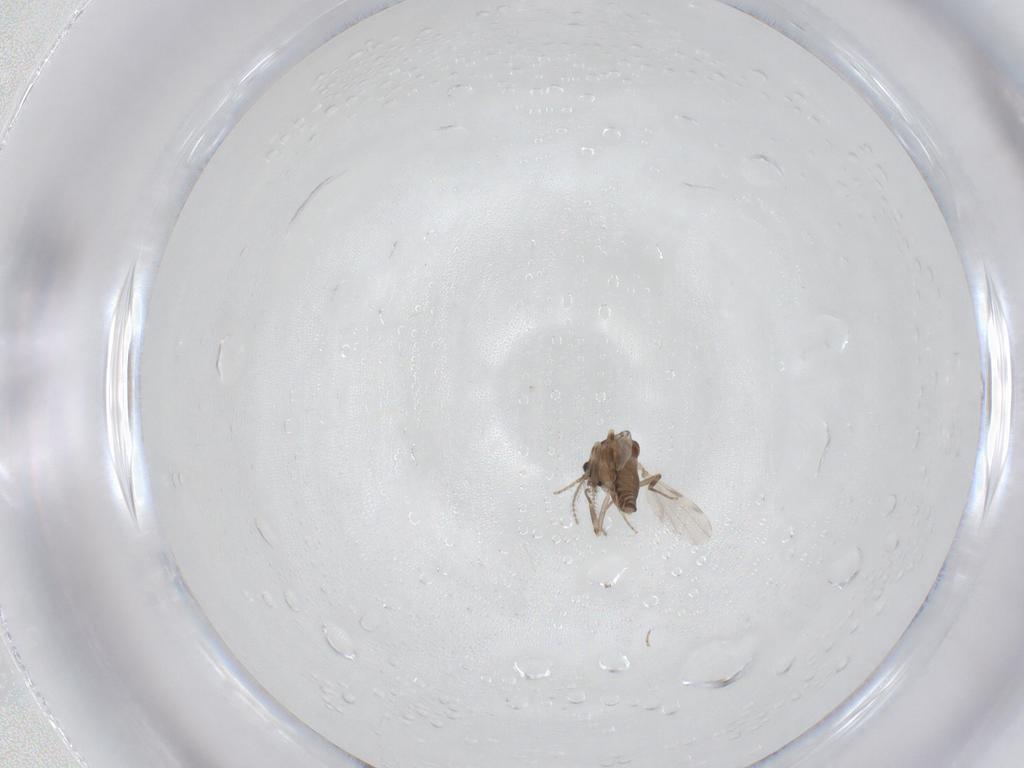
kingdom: Animalia
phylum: Arthropoda
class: Insecta
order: Diptera
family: Ceratopogonidae
